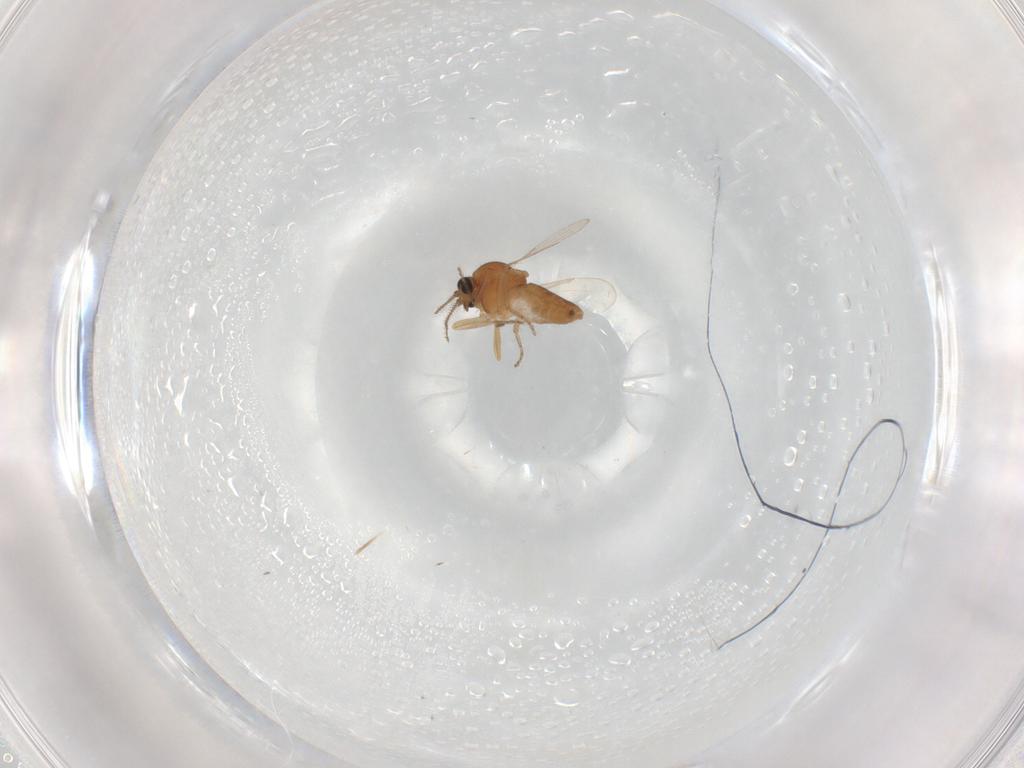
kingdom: Animalia
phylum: Arthropoda
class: Insecta
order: Diptera
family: Ceratopogonidae
